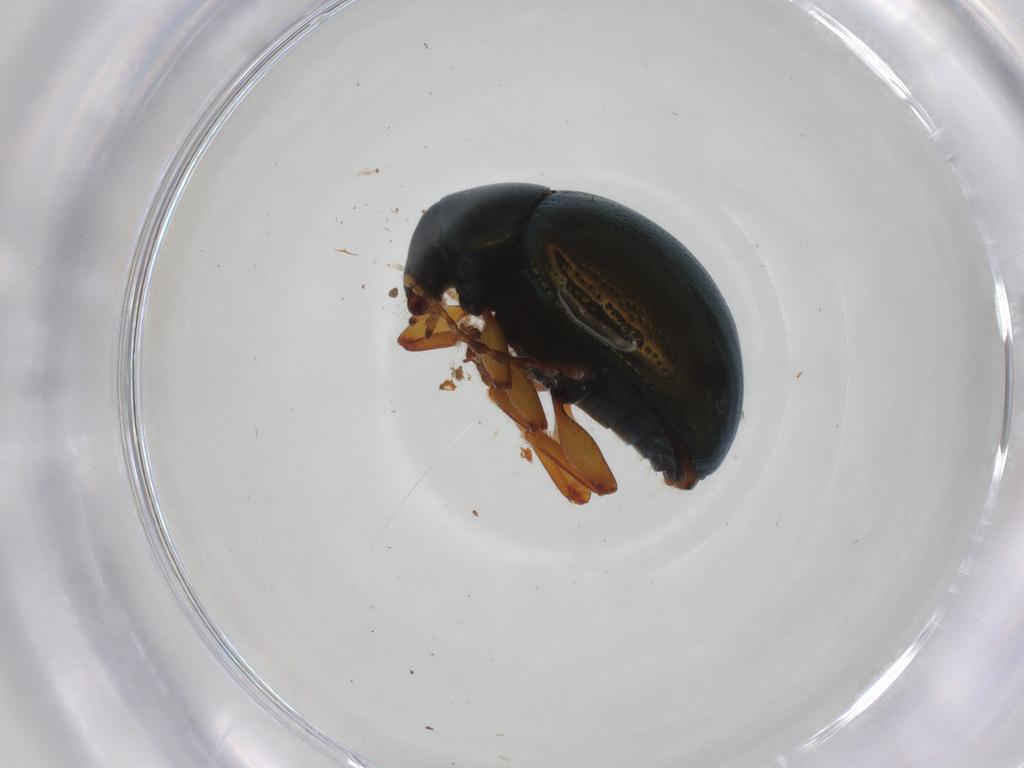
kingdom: Animalia
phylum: Arthropoda
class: Insecta
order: Coleoptera
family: Chrysomelidae
